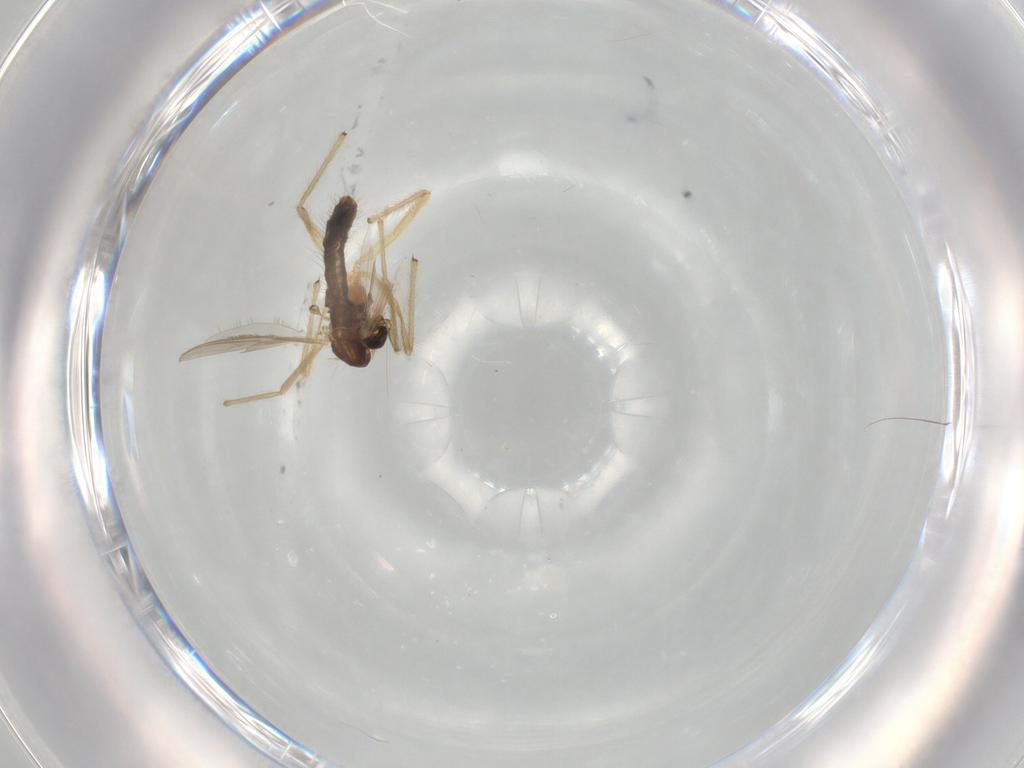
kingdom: Animalia
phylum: Arthropoda
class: Insecta
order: Diptera
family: Chironomidae
